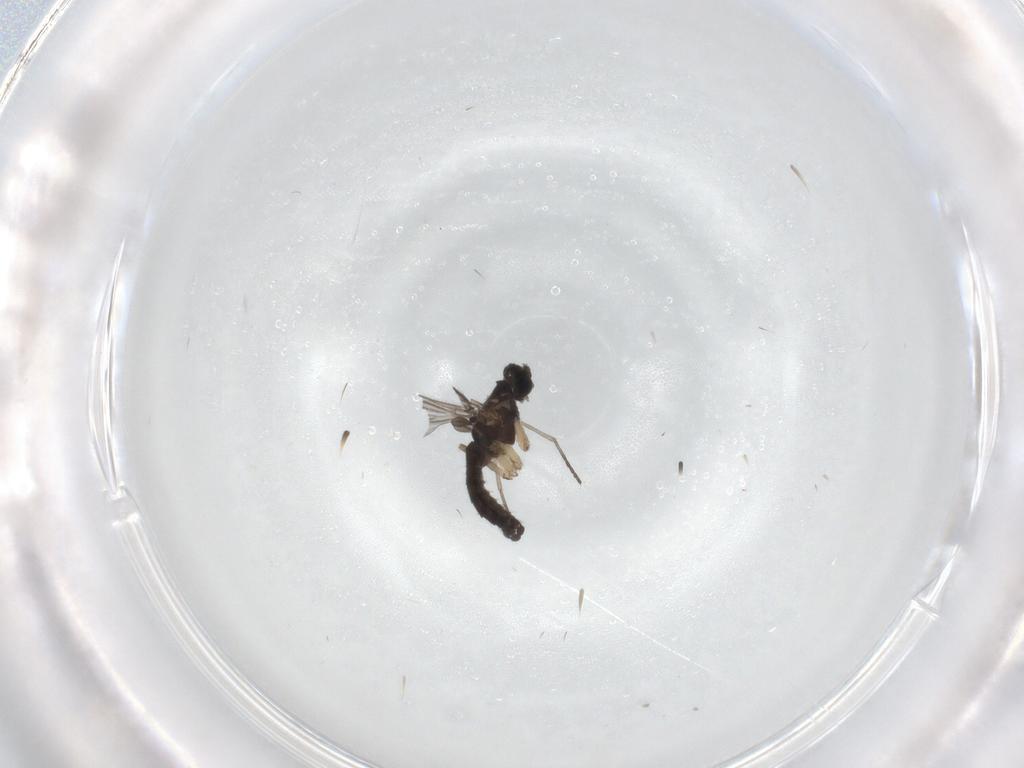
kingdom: Animalia
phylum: Arthropoda
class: Insecta
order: Diptera
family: Sciaridae
